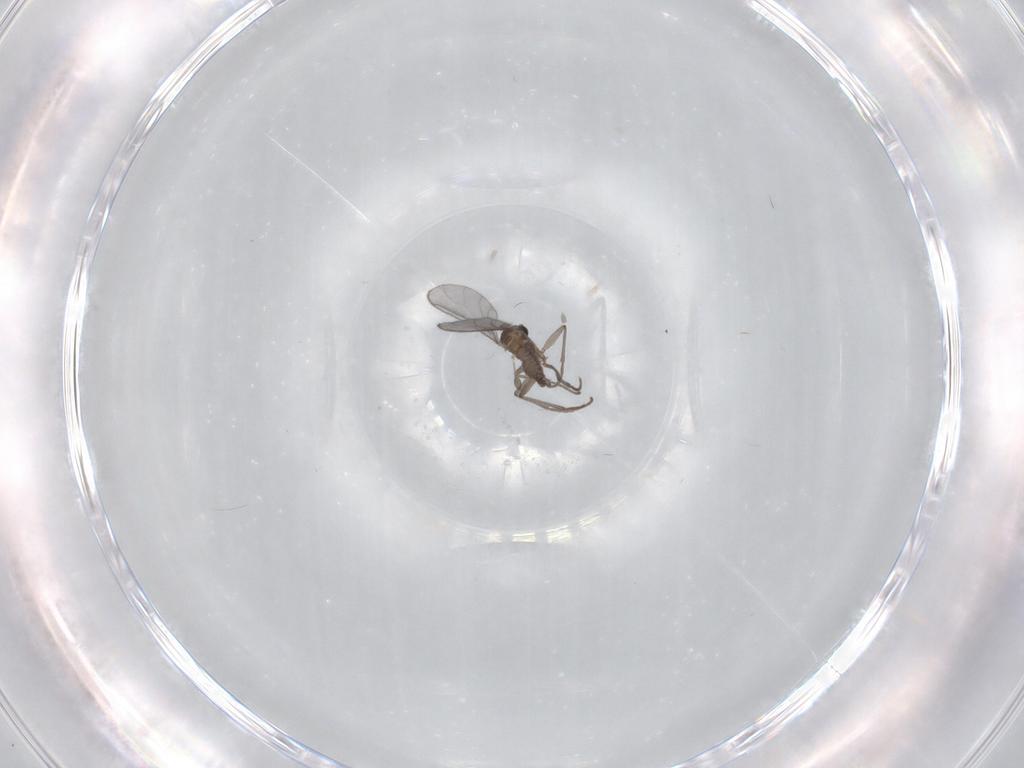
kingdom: Animalia
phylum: Arthropoda
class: Insecta
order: Diptera
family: Sciaridae
